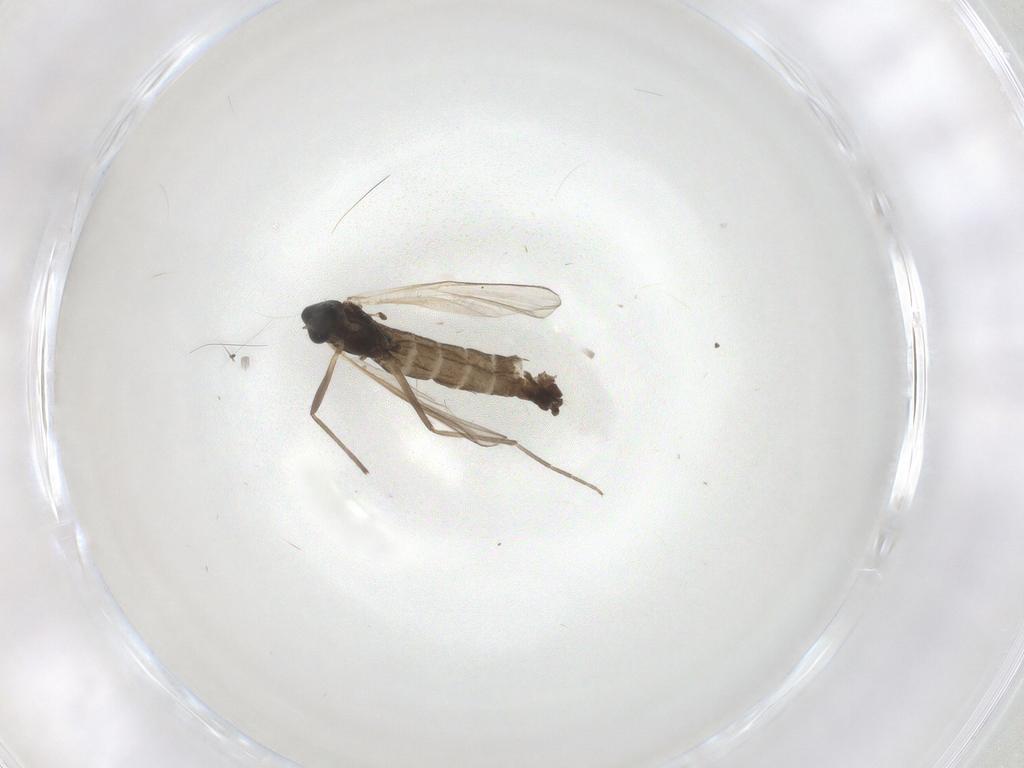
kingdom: Animalia
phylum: Arthropoda
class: Insecta
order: Diptera
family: Chironomidae
